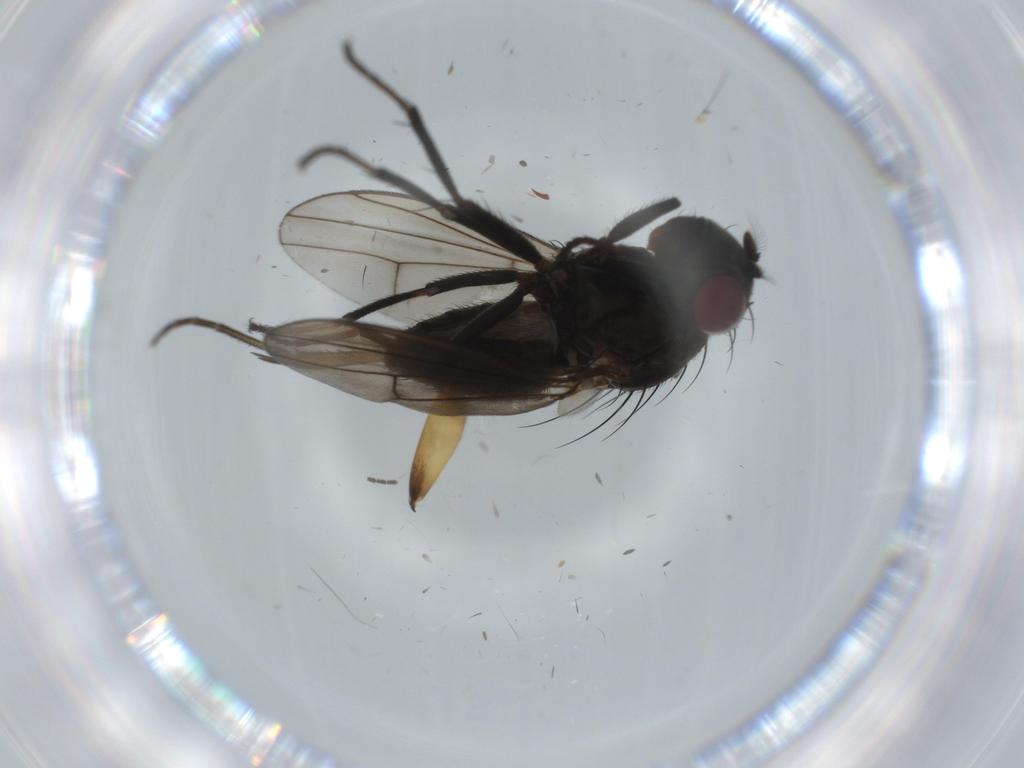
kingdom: Animalia
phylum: Arthropoda
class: Insecta
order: Diptera
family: Ephydridae
